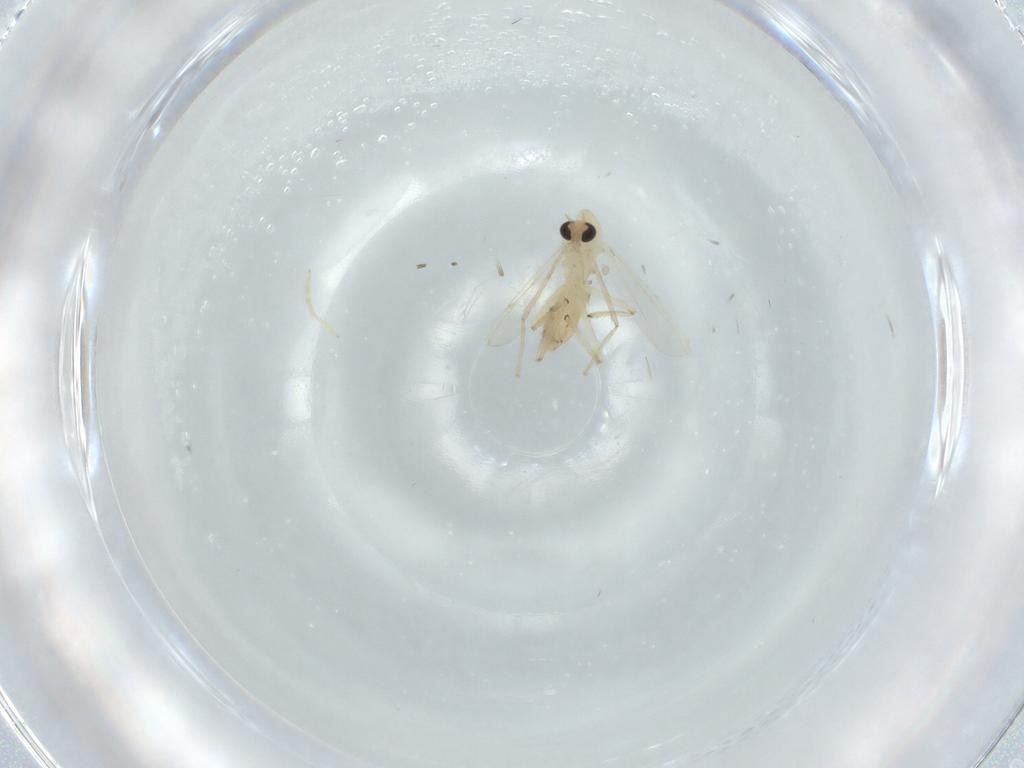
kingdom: Animalia
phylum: Arthropoda
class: Insecta
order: Diptera
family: Chironomidae
